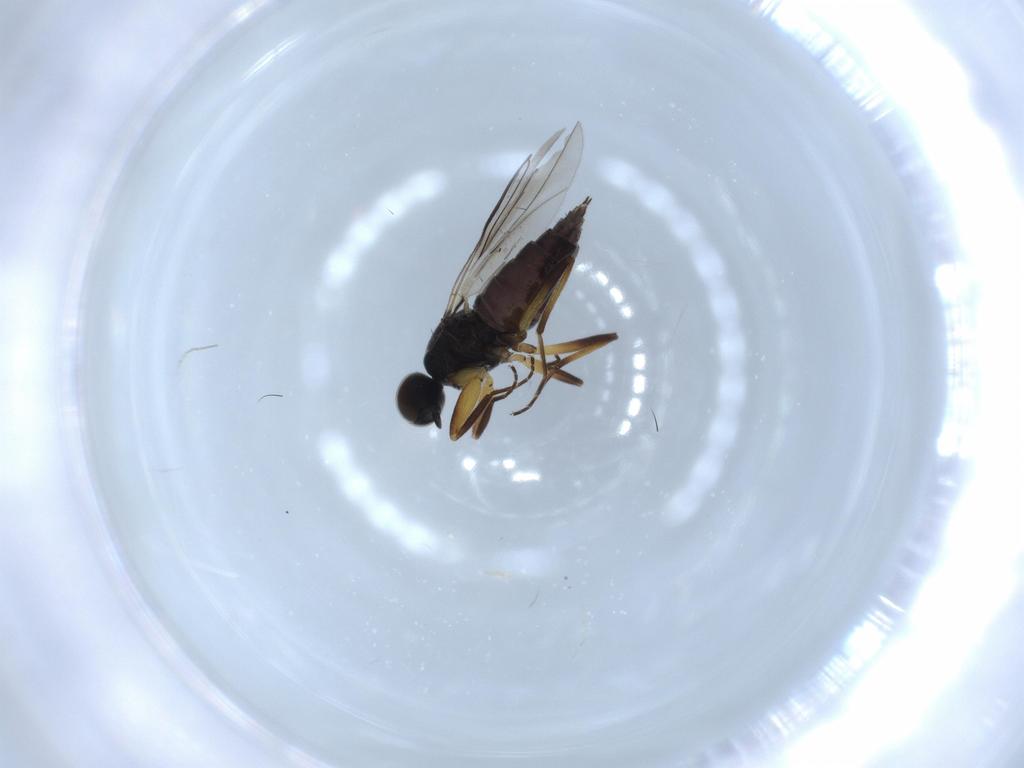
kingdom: Animalia
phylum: Arthropoda
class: Insecta
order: Diptera
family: Hybotidae
